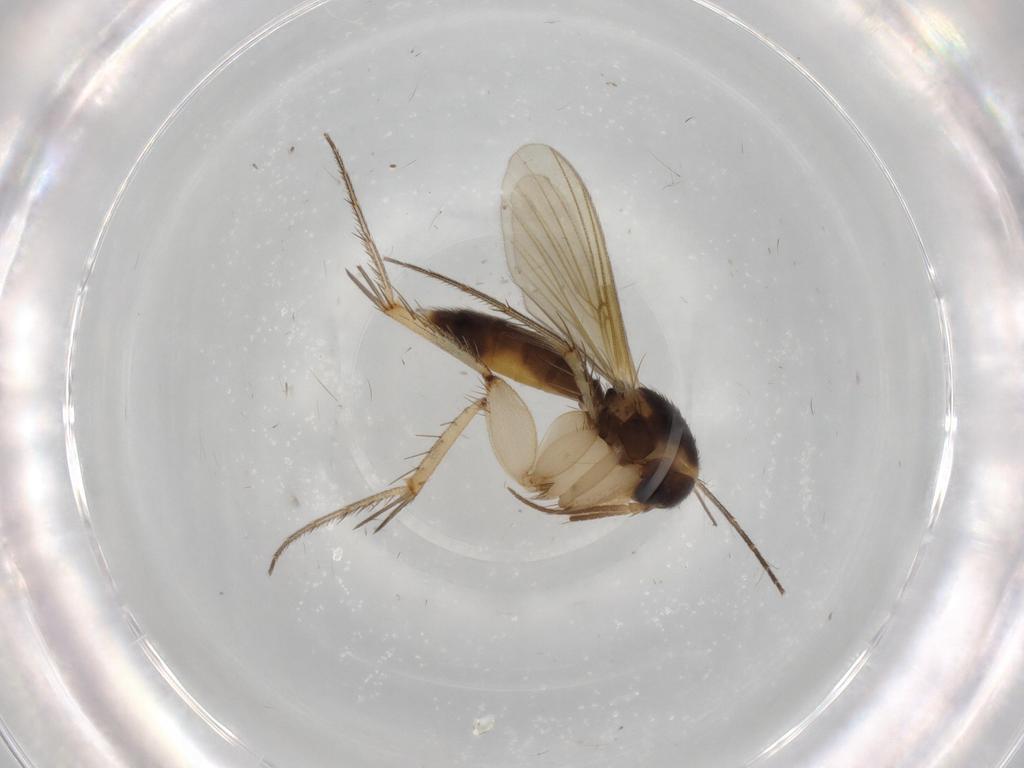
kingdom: Animalia
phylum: Arthropoda
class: Insecta
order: Diptera
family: Mycetophilidae
